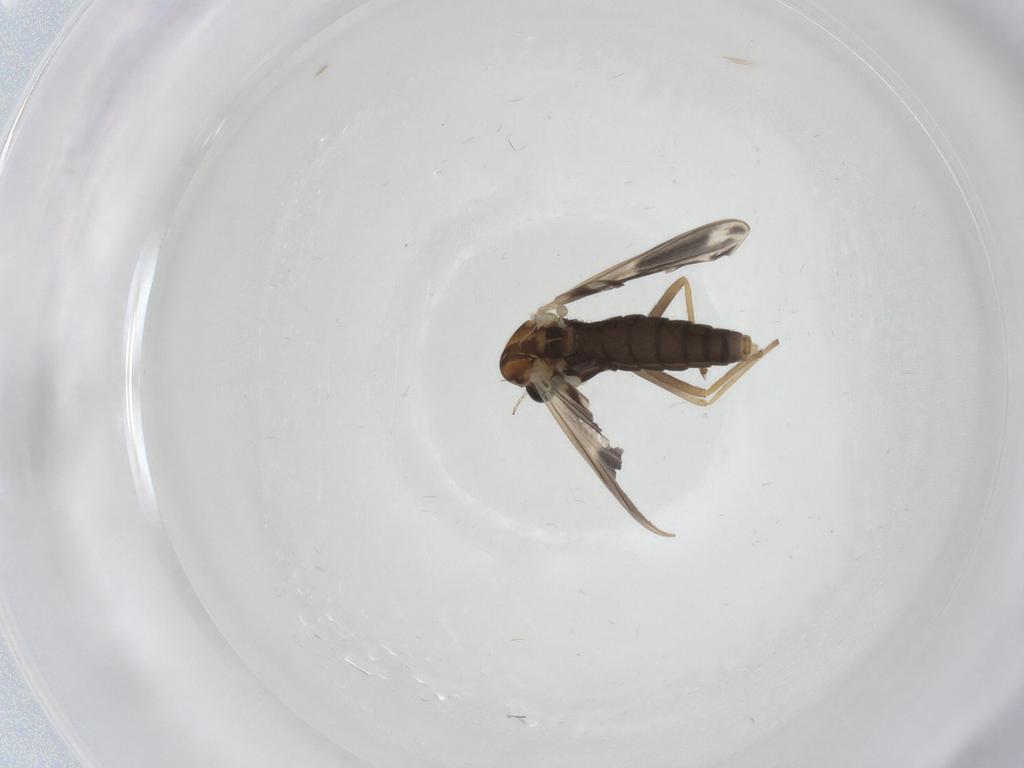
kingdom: Animalia
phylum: Arthropoda
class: Insecta
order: Diptera
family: Chironomidae
